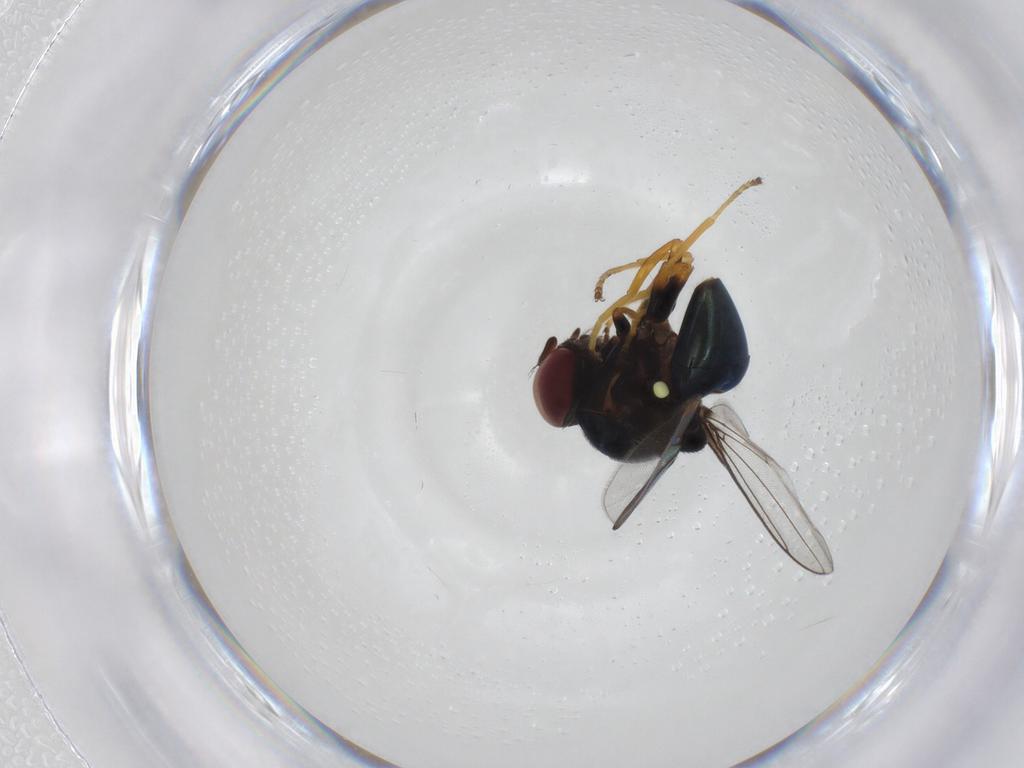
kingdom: Animalia
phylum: Arthropoda
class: Insecta
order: Diptera
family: Chloropidae
